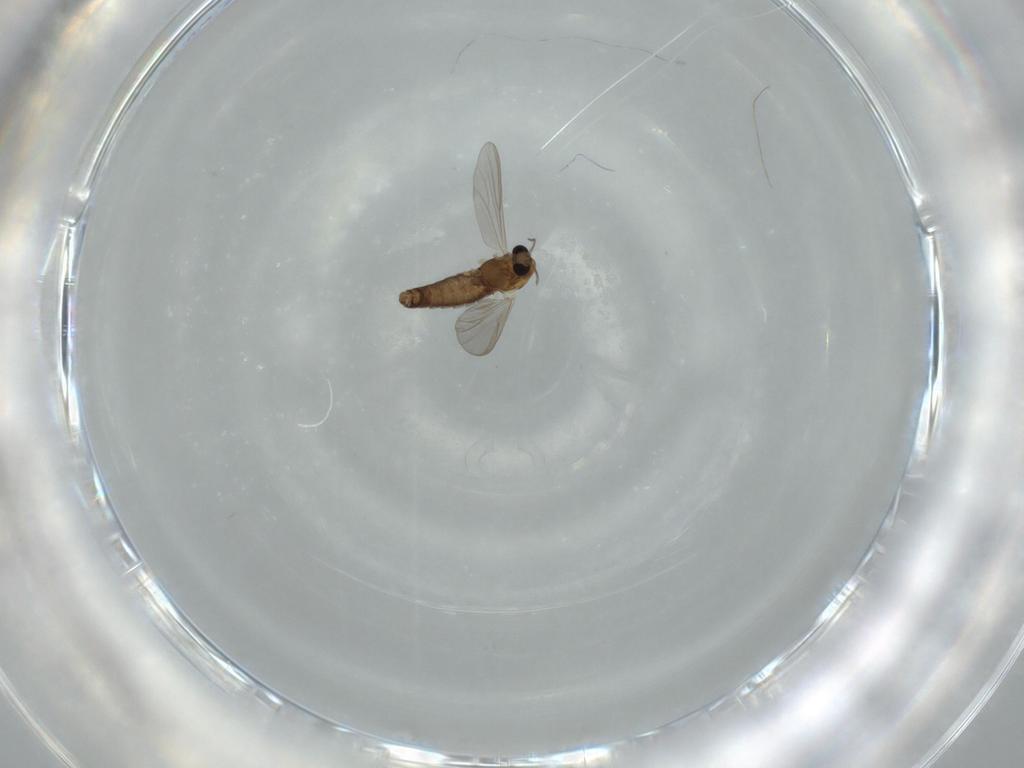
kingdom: Animalia
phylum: Arthropoda
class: Insecta
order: Diptera
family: Chironomidae
